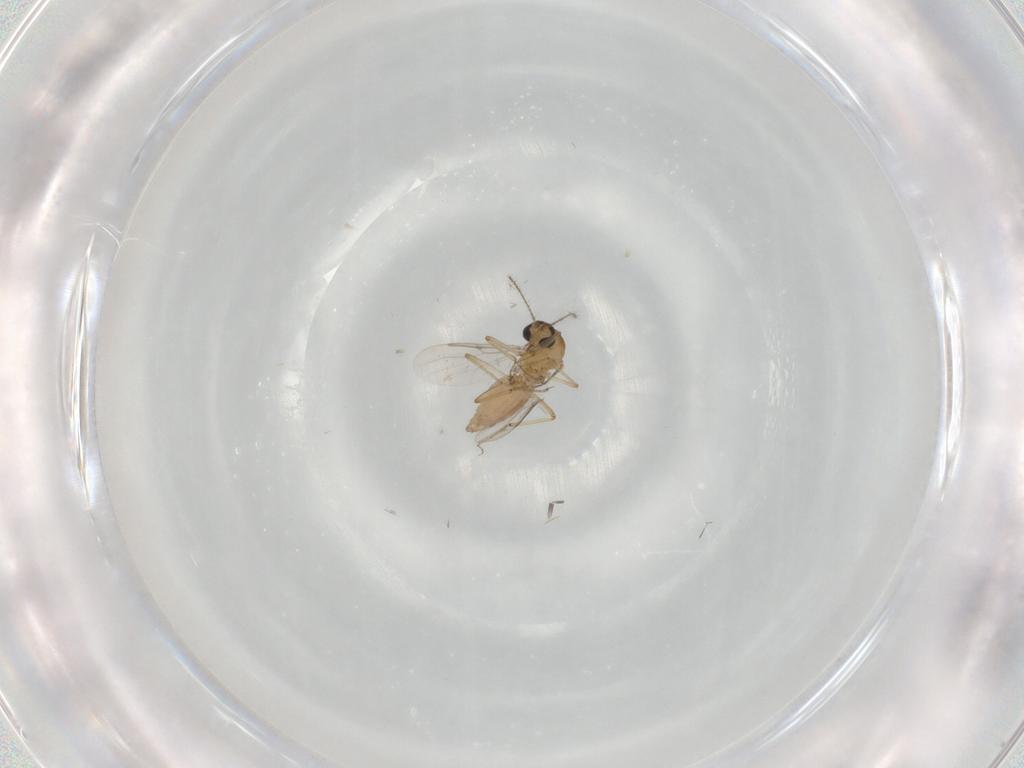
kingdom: Animalia
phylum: Arthropoda
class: Insecta
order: Diptera
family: Ceratopogonidae
